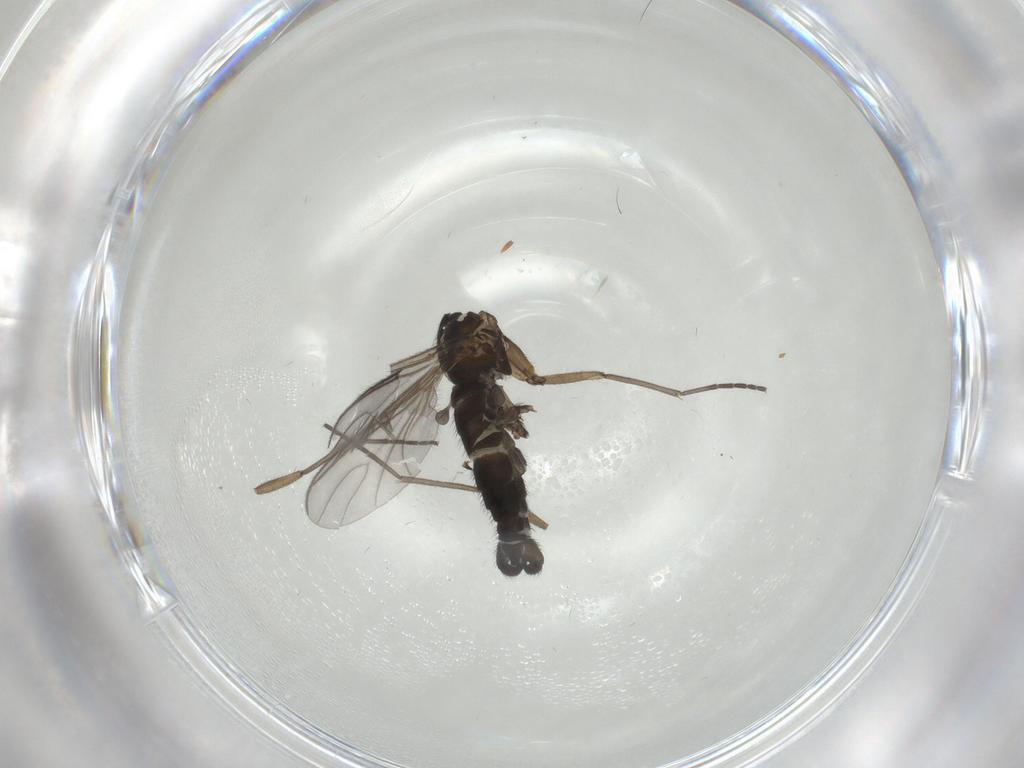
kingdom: Animalia
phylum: Arthropoda
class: Insecta
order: Diptera
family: Sciaridae
